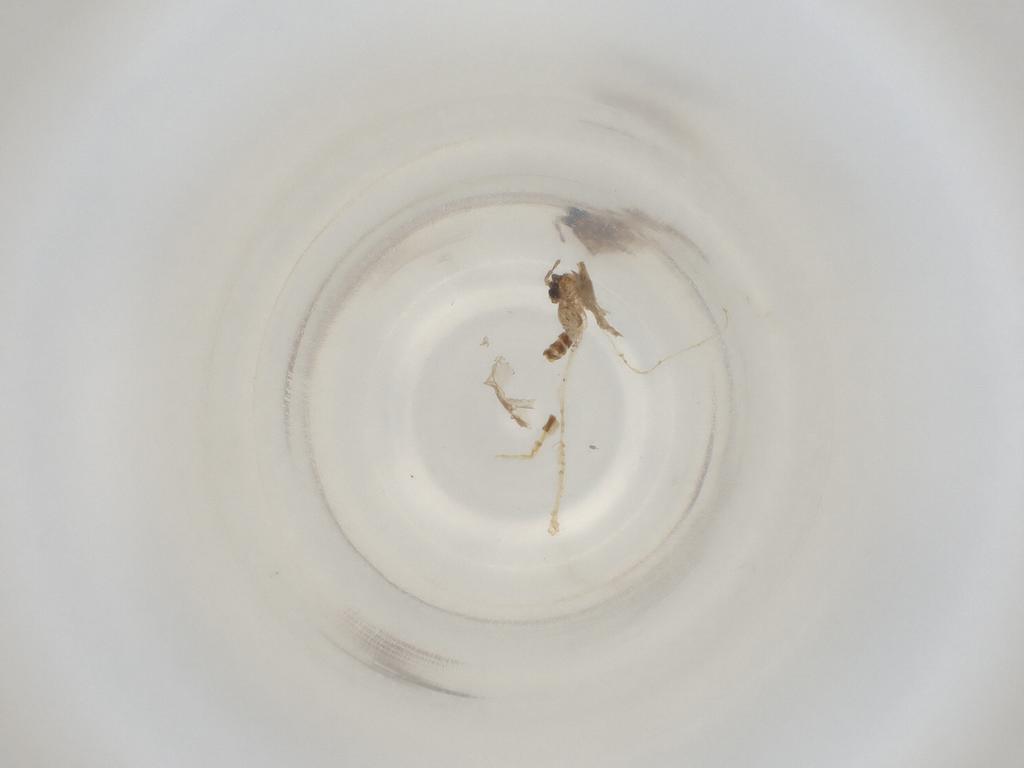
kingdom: Animalia
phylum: Arthropoda
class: Insecta
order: Diptera
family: Cecidomyiidae
